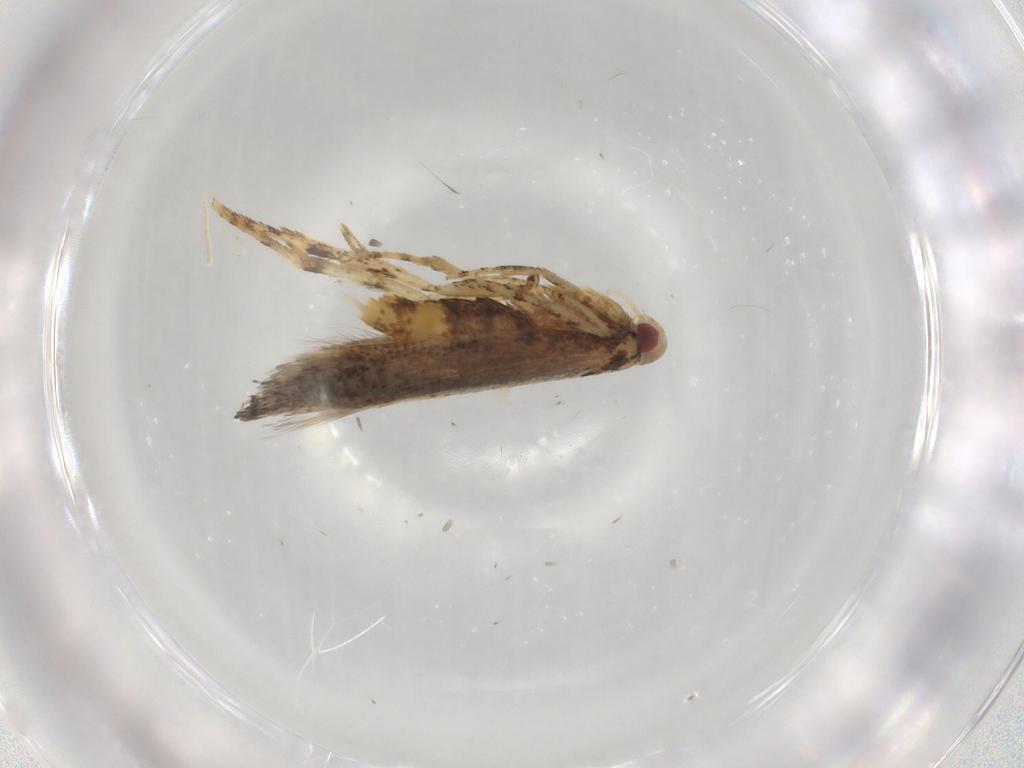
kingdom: Animalia
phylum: Arthropoda
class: Insecta
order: Lepidoptera
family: Cosmopterigidae
